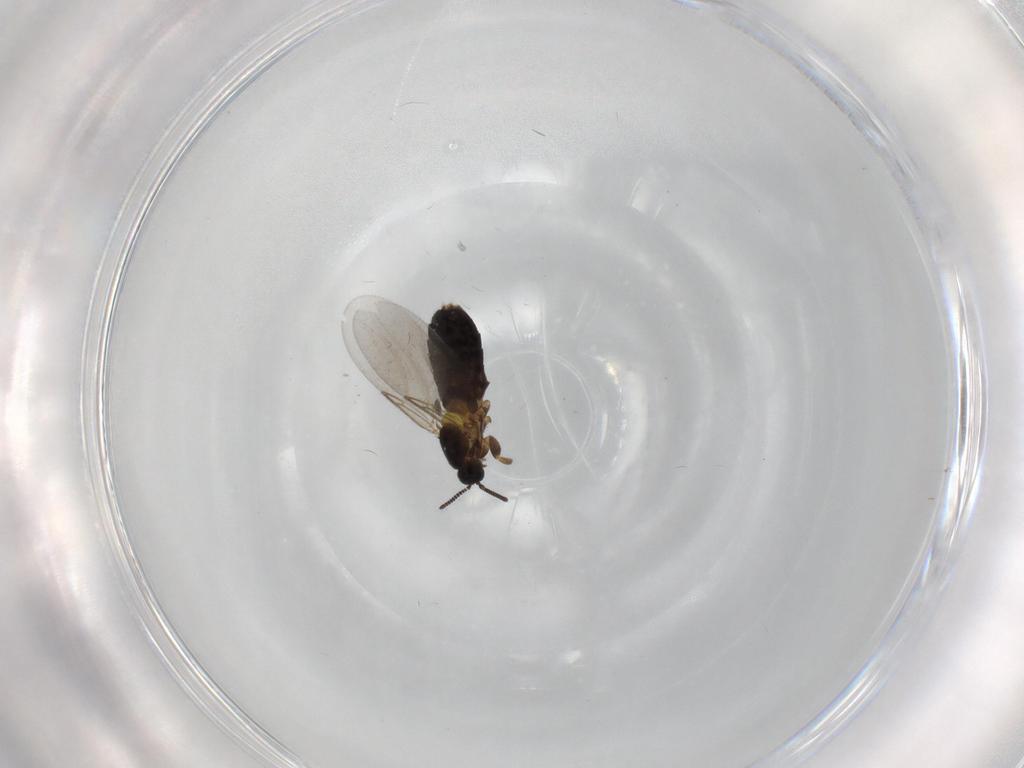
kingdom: Animalia
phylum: Arthropoda
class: Insecta
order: Diptera
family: Scatopsidae
